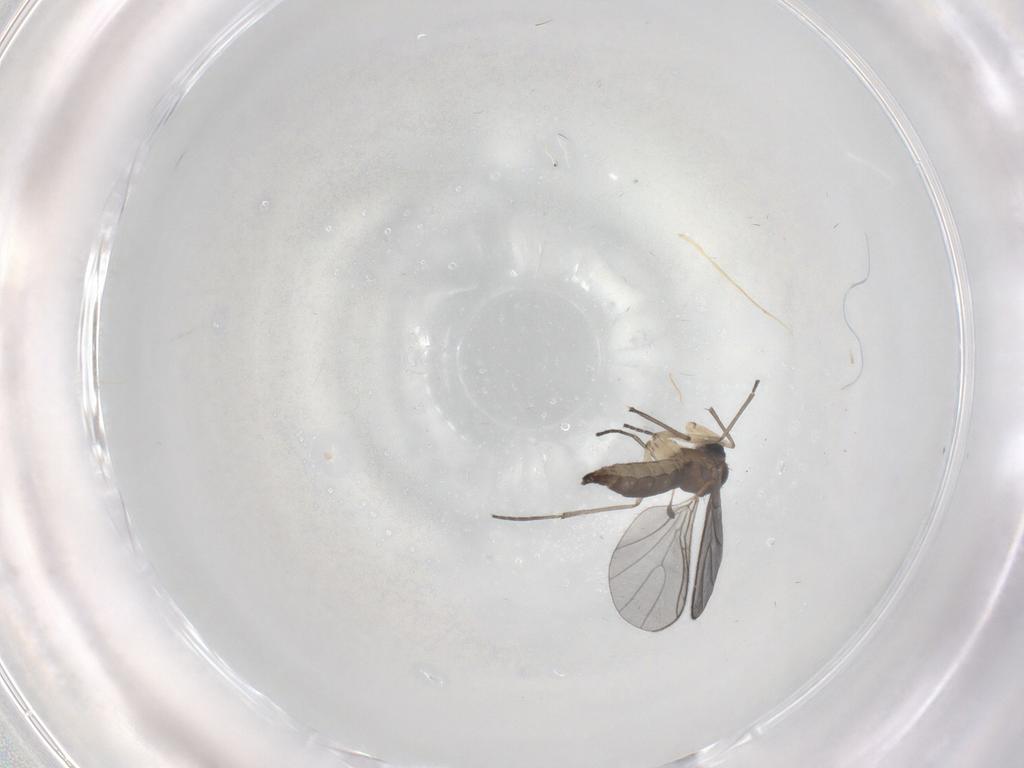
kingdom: Animalia
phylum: Arthropoda
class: Insecta
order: Diptera
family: Sciaridae
